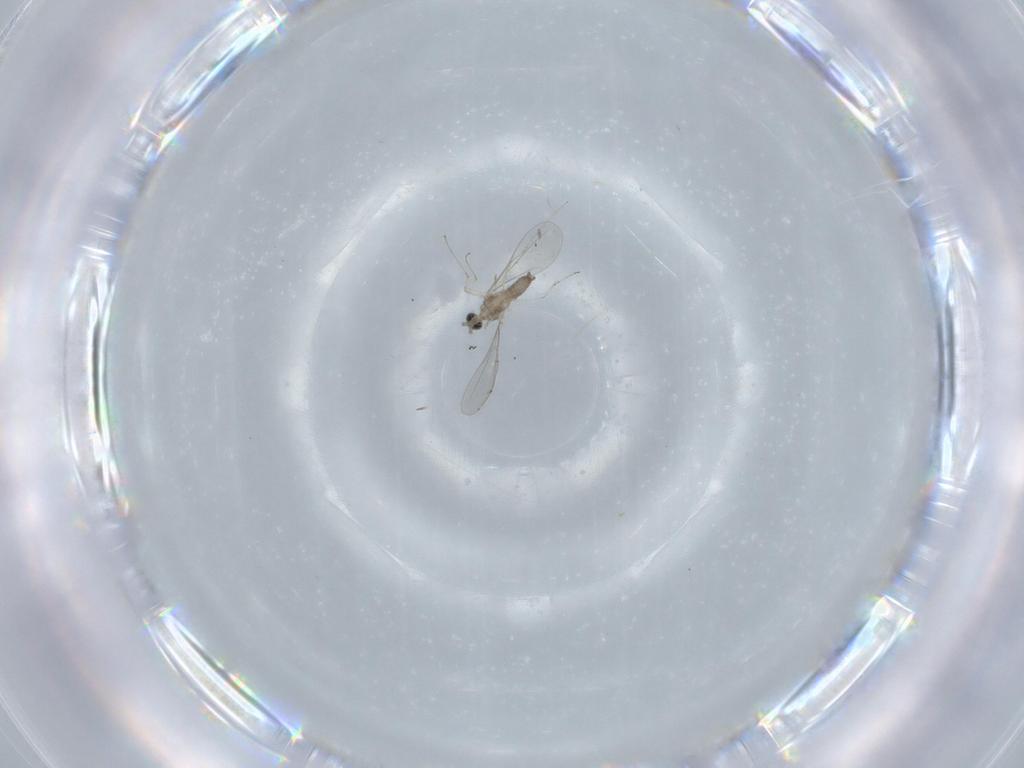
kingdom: Animalia
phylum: Arthropoda
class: Insecta
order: Diptera
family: Cecidomyiidae
